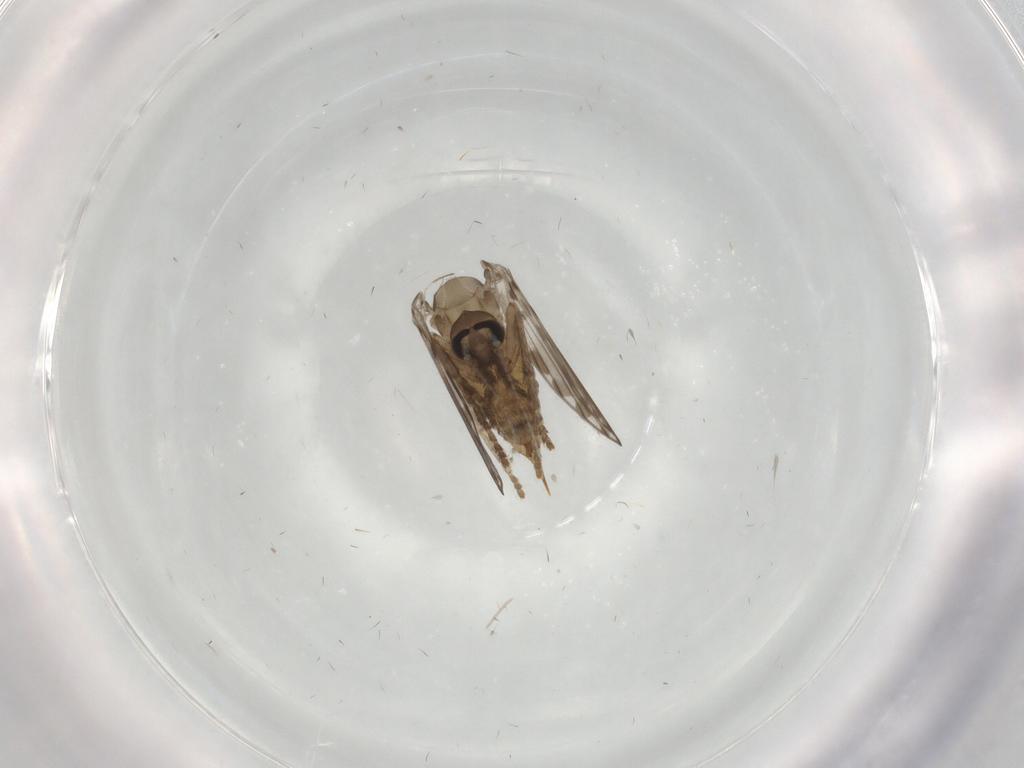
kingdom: Animalia
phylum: Arthropoda
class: Insecta
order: Diptera
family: Psychodidae
